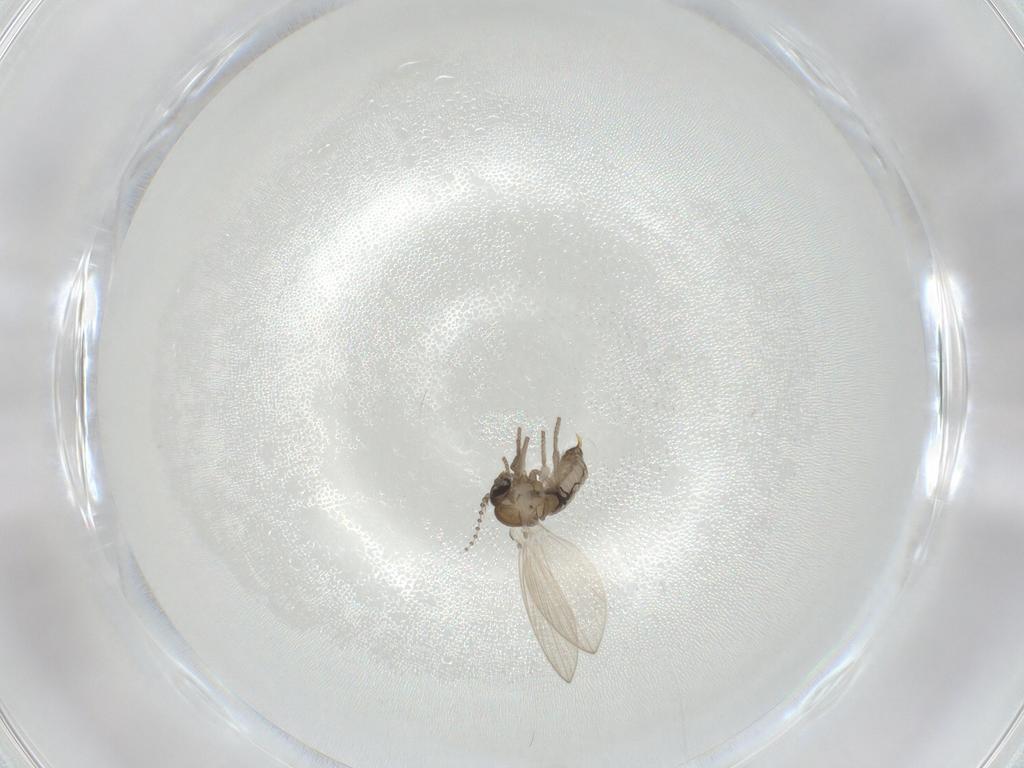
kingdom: Animalia
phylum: Arthropoda
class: Insecta
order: Diptera
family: Psychodidae
